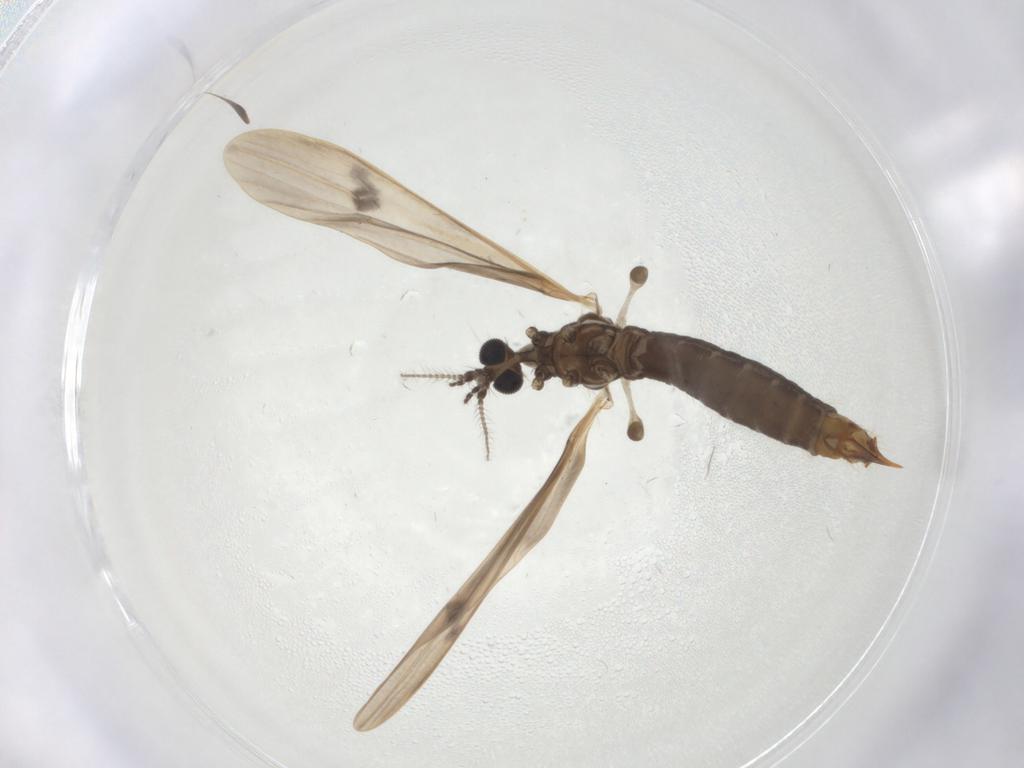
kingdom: Animalia
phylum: Arthropoda
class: Insecta
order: Diptera
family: Limoniidae
